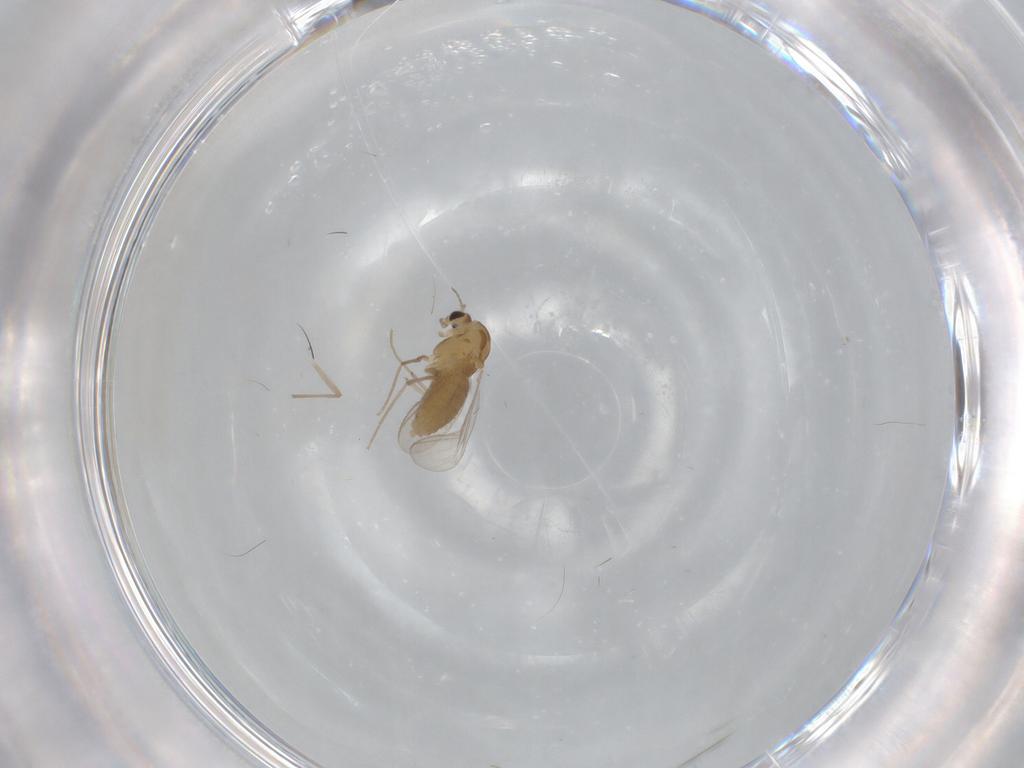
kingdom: Animalia
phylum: Arthropoda
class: Insecta
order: Diptera
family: Chironomidae
